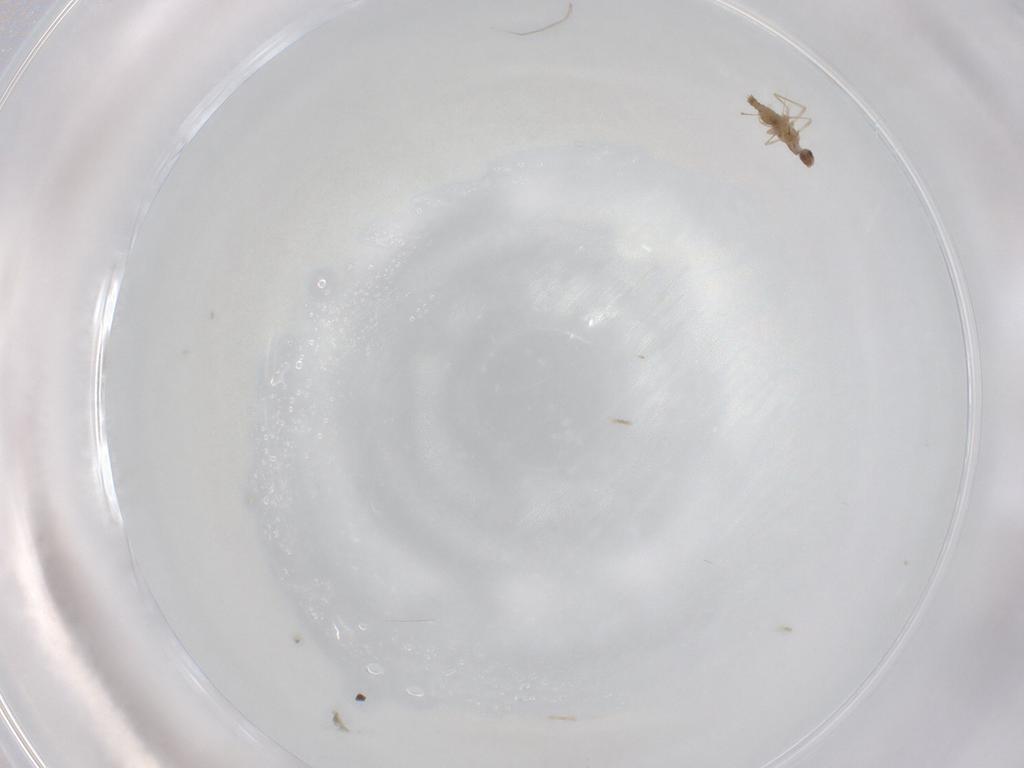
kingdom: Animalia
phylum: Arthropoda
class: Insecta
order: Diptera
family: Cecidomyiidae
